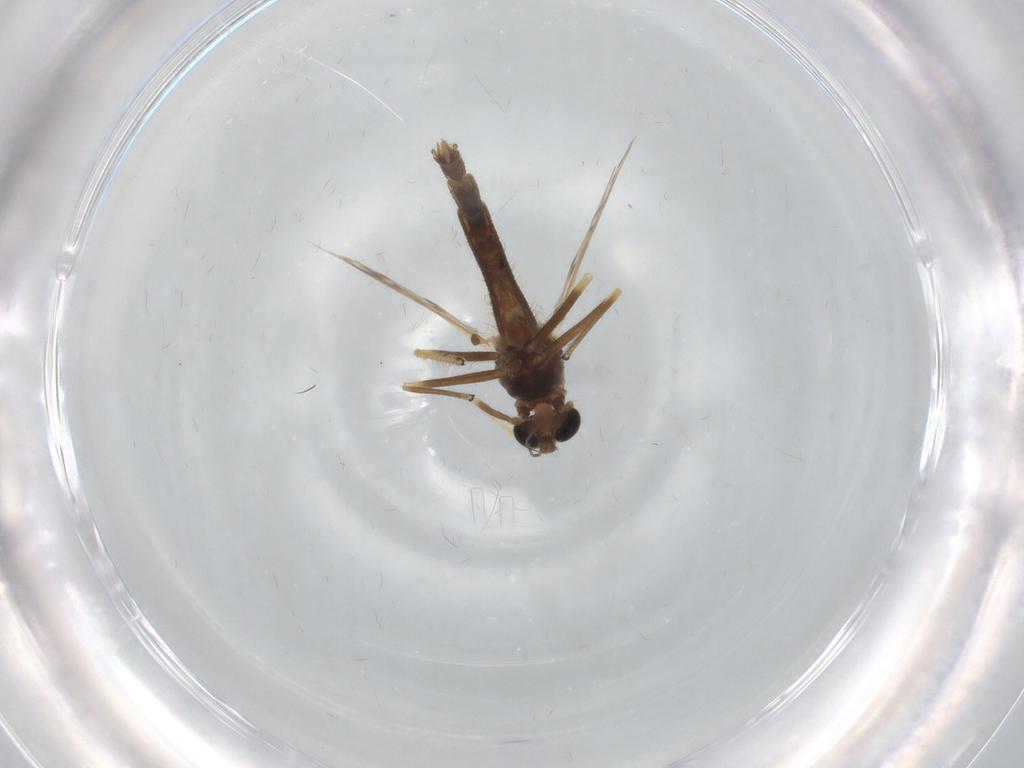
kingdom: Animalia
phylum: Arthropoda
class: Insecta
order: Diptera
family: Chironomidae
